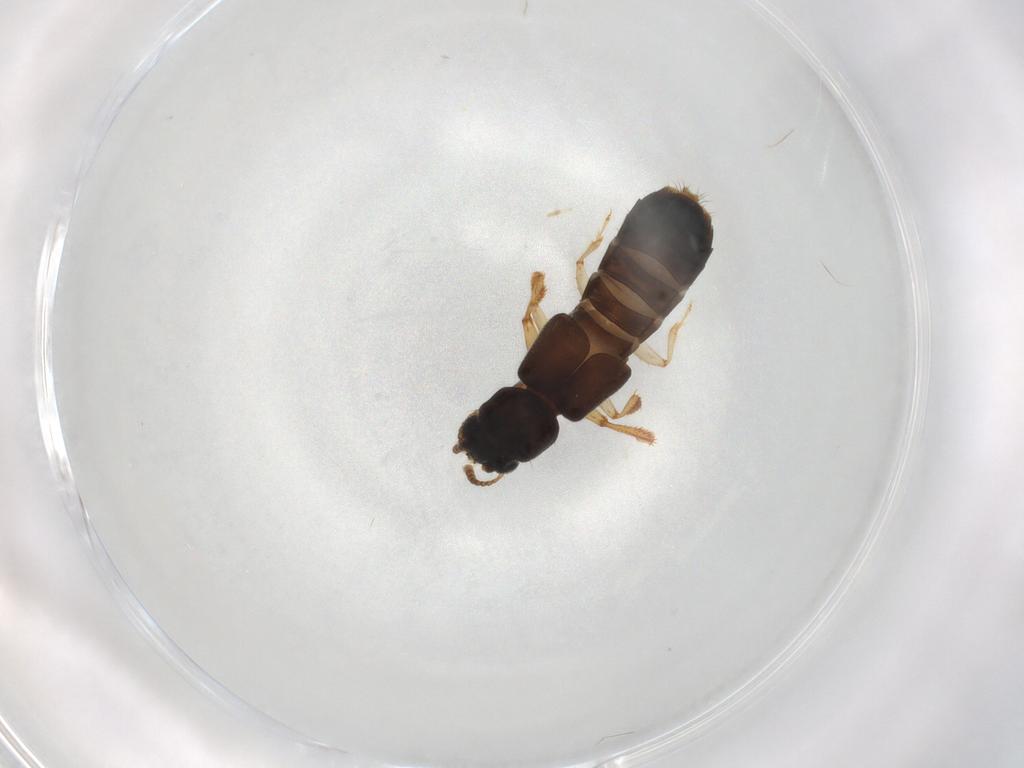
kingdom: Animalia
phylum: Arthropoda
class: Insecta
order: Coleoptera
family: Staphylinidae
